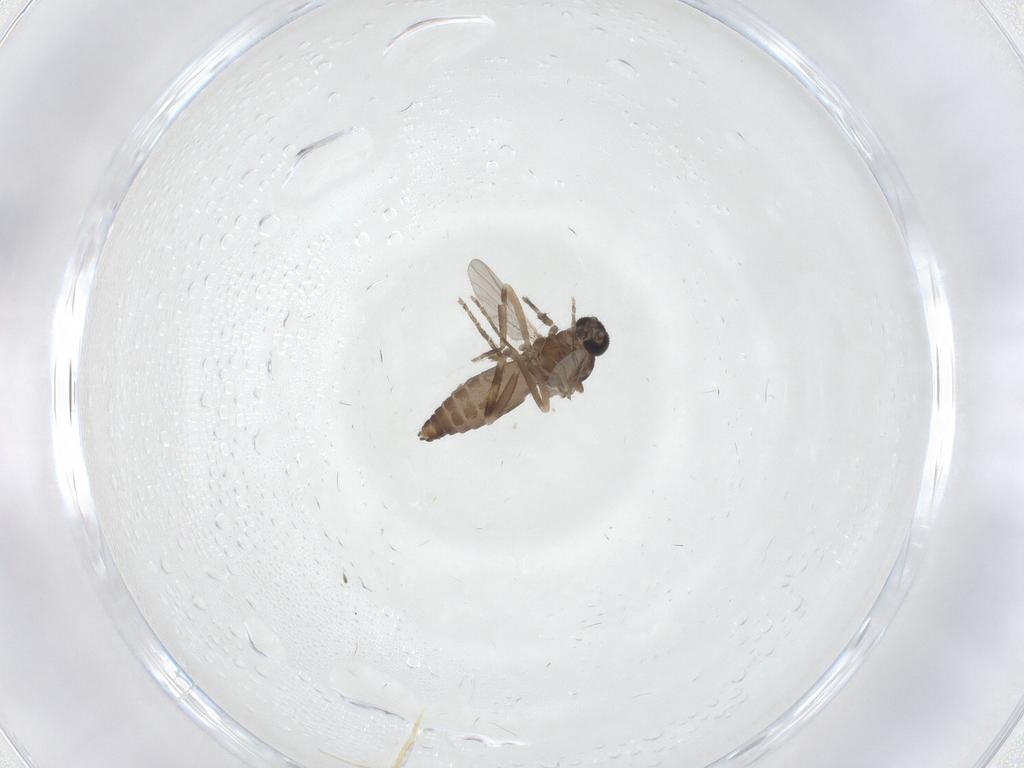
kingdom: Animalia
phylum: Arthropoda
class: Insecta
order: Diptera
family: Ceratopogonidae
